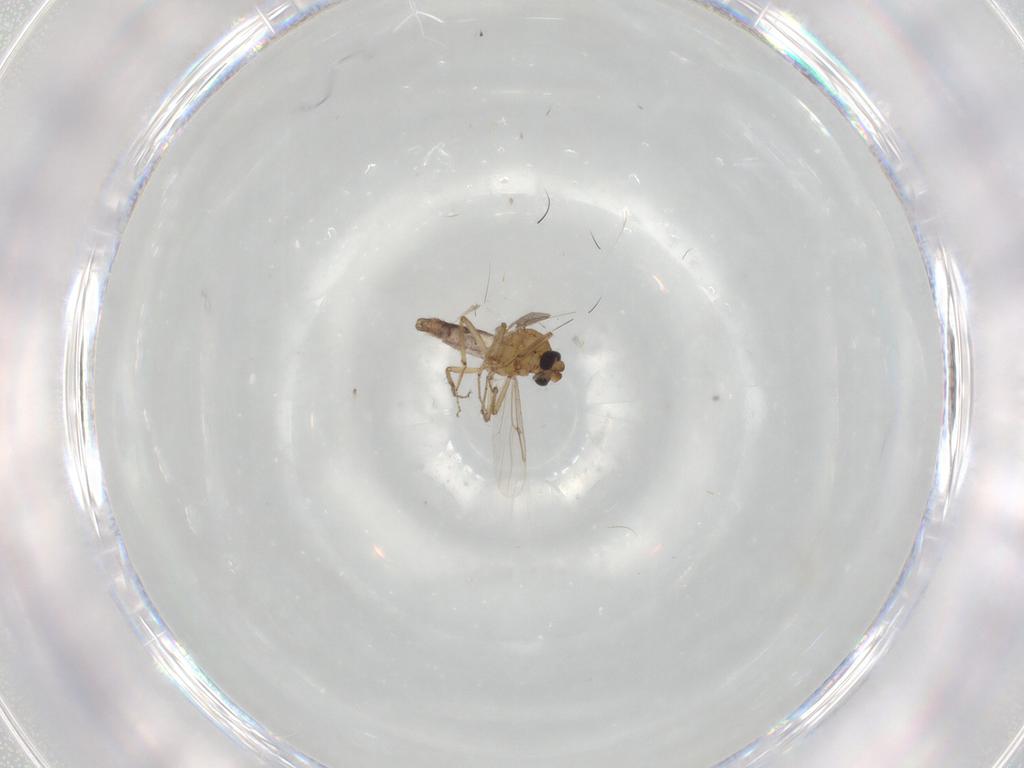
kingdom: Animalia
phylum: Arthropoda
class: Insecta
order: Diptera
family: Ceratopogonidae
